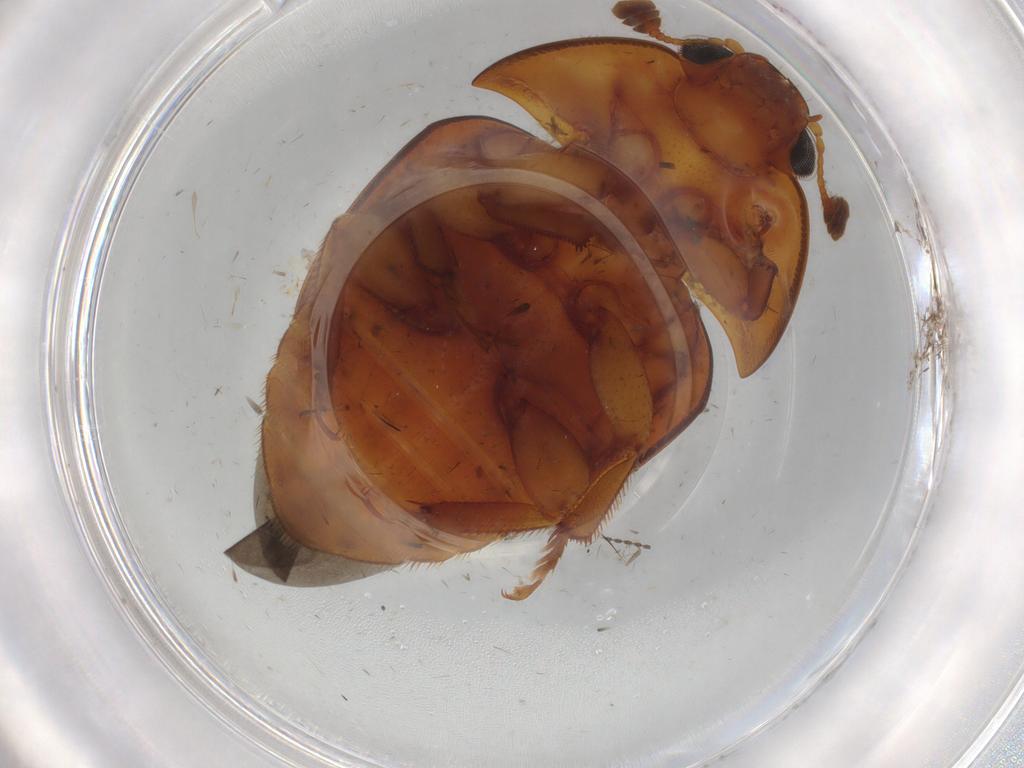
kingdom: Animalia
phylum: Arthropoda
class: Insecta
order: Coleoptera
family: Nitidulidae
